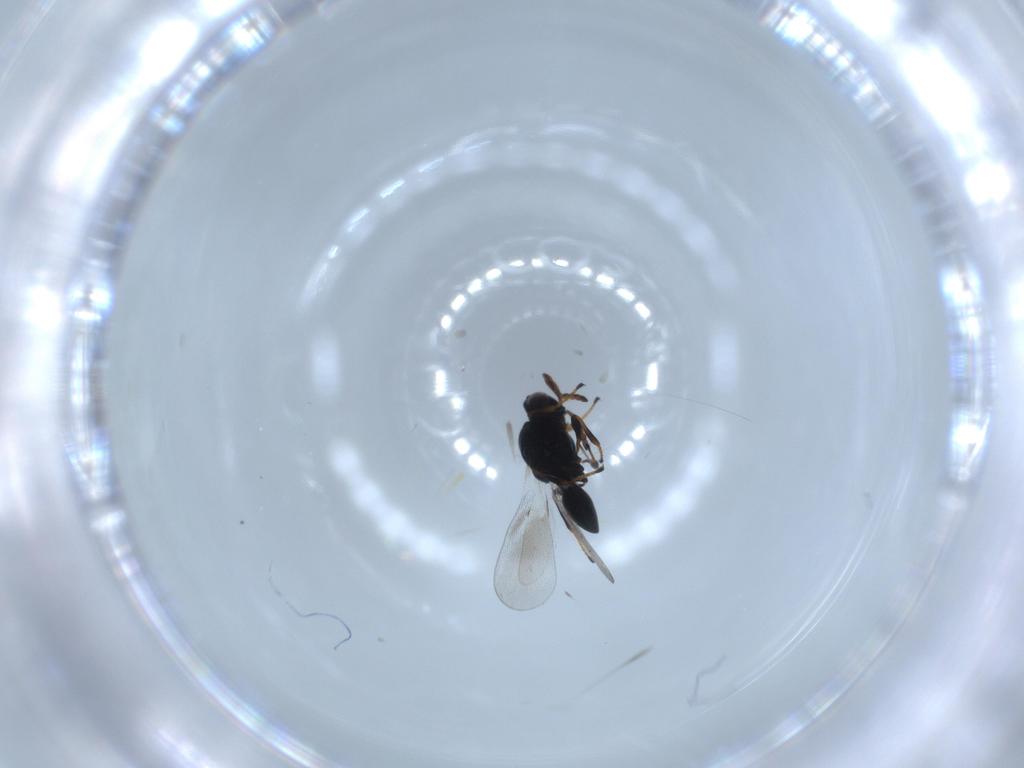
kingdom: Animalia
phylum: Arthropoda
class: Insecta
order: Hymenoptera
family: Platygastridae
